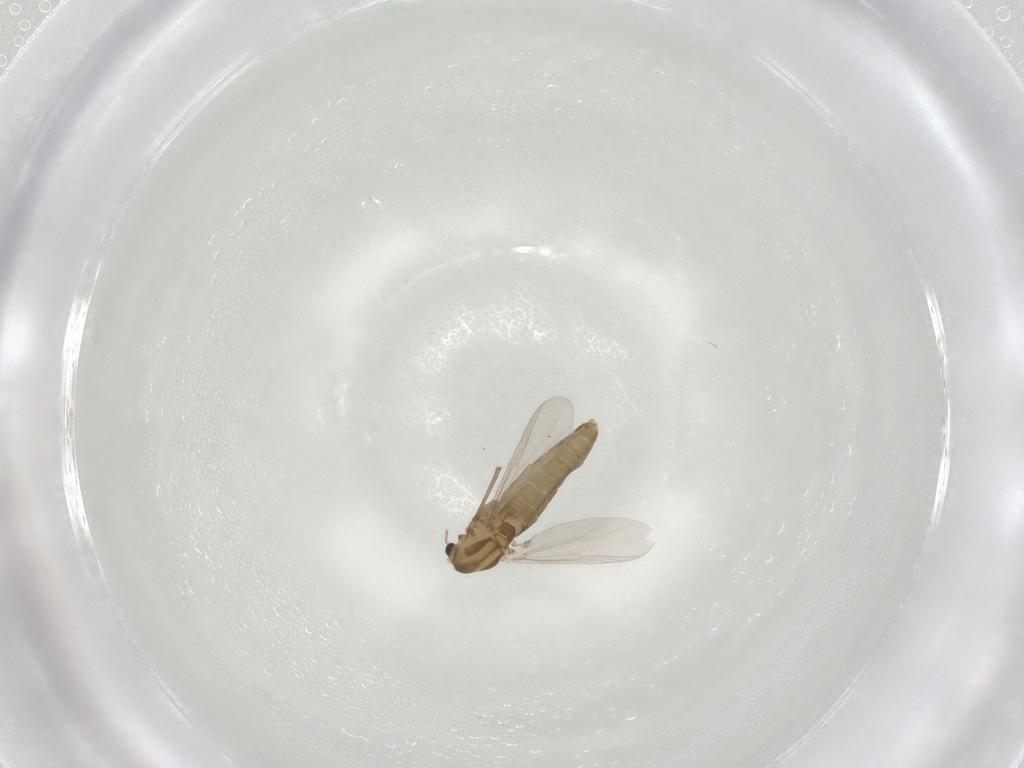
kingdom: Animalia
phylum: Arthropoda
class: Insecta
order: Diptera
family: Chironomidae
